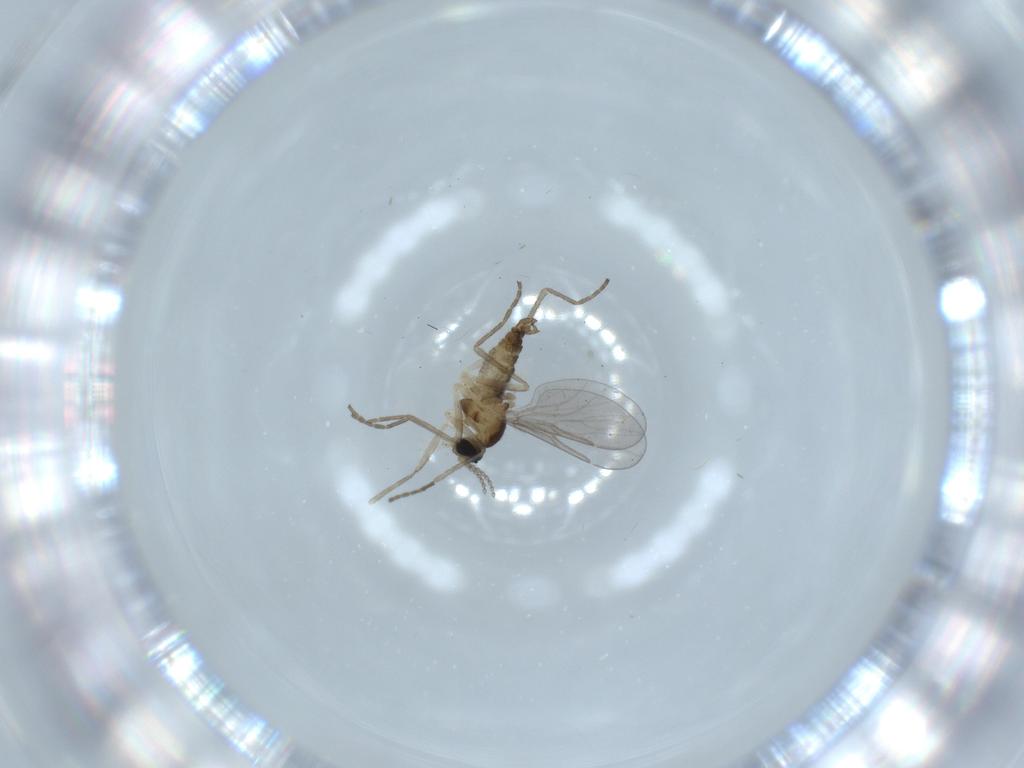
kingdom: Animalia
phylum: Arthropoda
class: Insecta
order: Diptera
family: Cecidomyiidae
